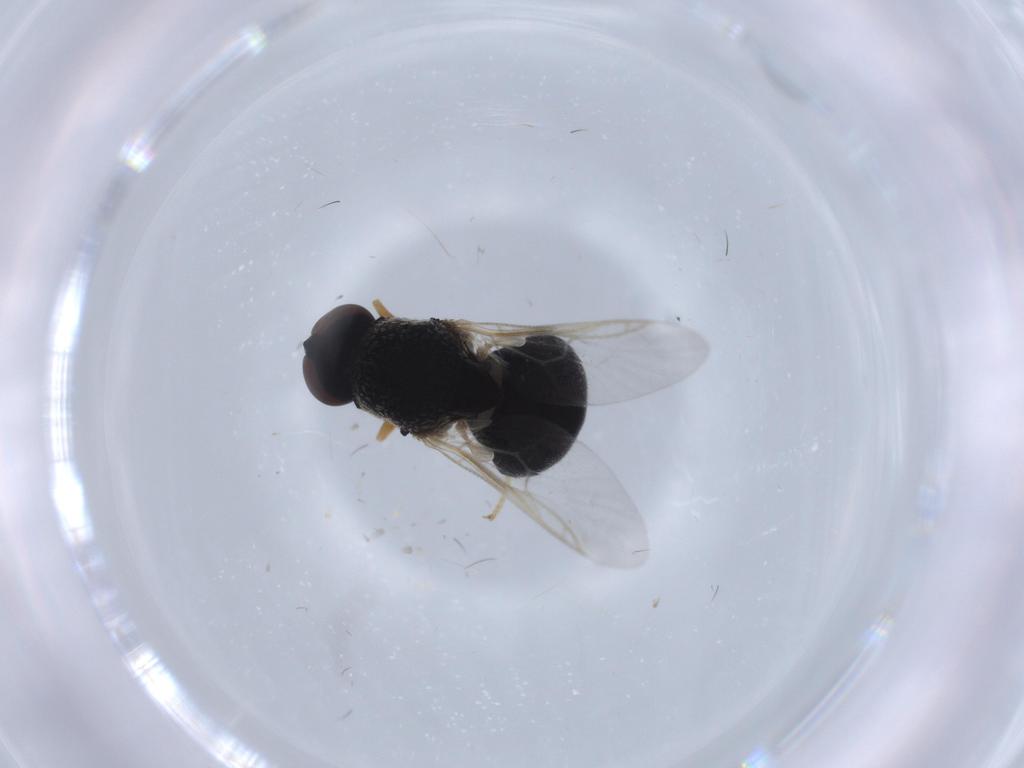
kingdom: Animalia
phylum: Arthropoda
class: Insecta
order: Diptera
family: Stratiomyidae
